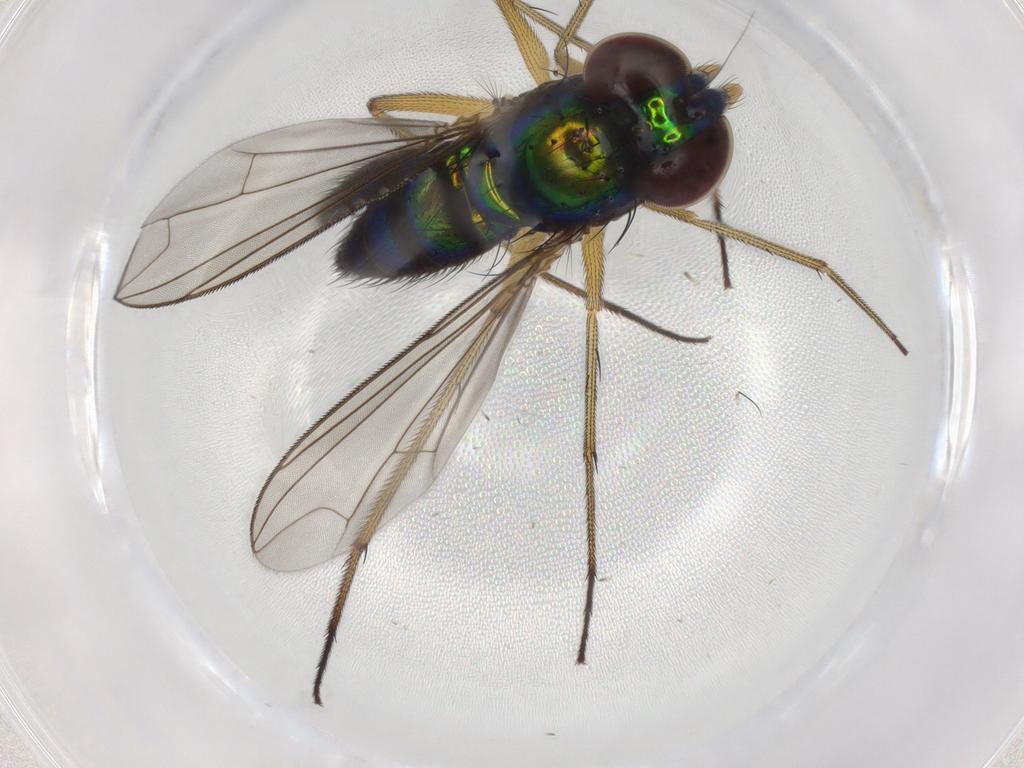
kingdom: Animalia
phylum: Arthropoda
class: Insecta
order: Diptera
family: Dolichopodidae
